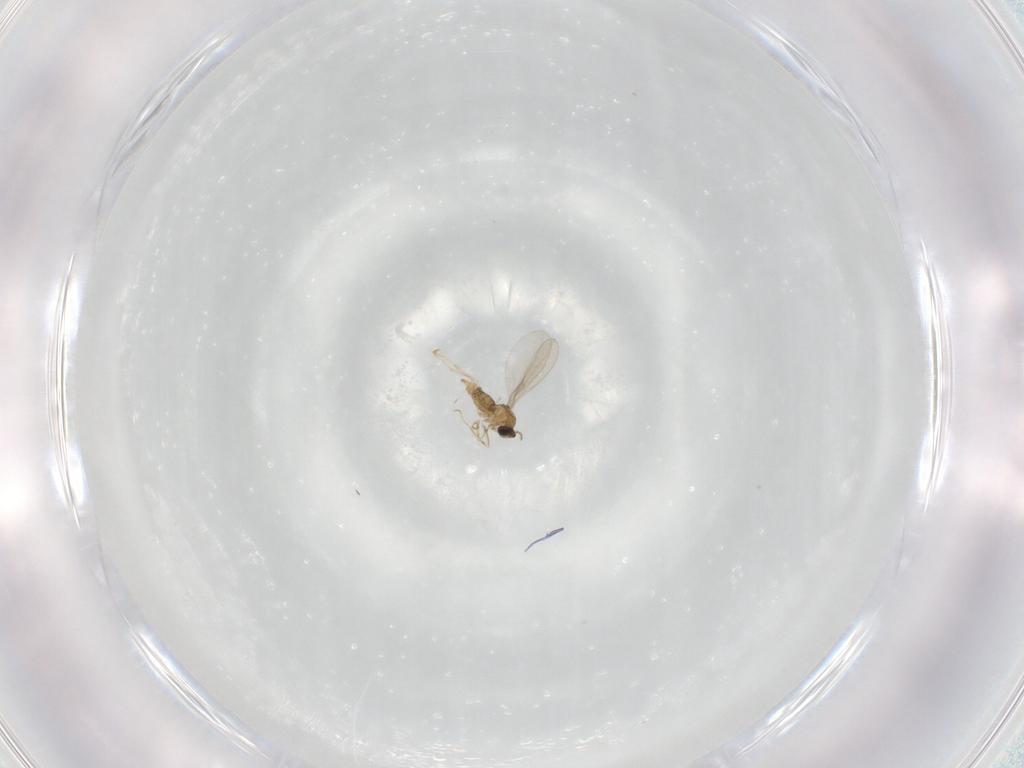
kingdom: Animalia
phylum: Arthropoda
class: Insecta
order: Diptera
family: Cecidomyiidae
